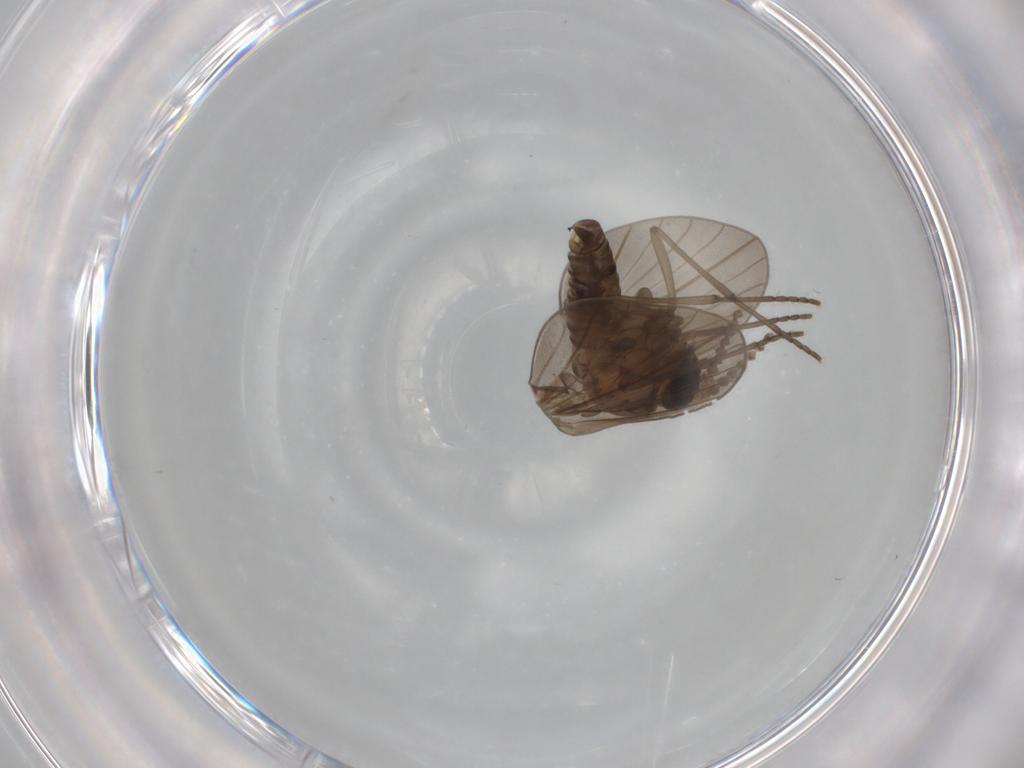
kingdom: Animalia
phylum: Arthropoda
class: Insecta
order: Diptera
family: Chironomidae
